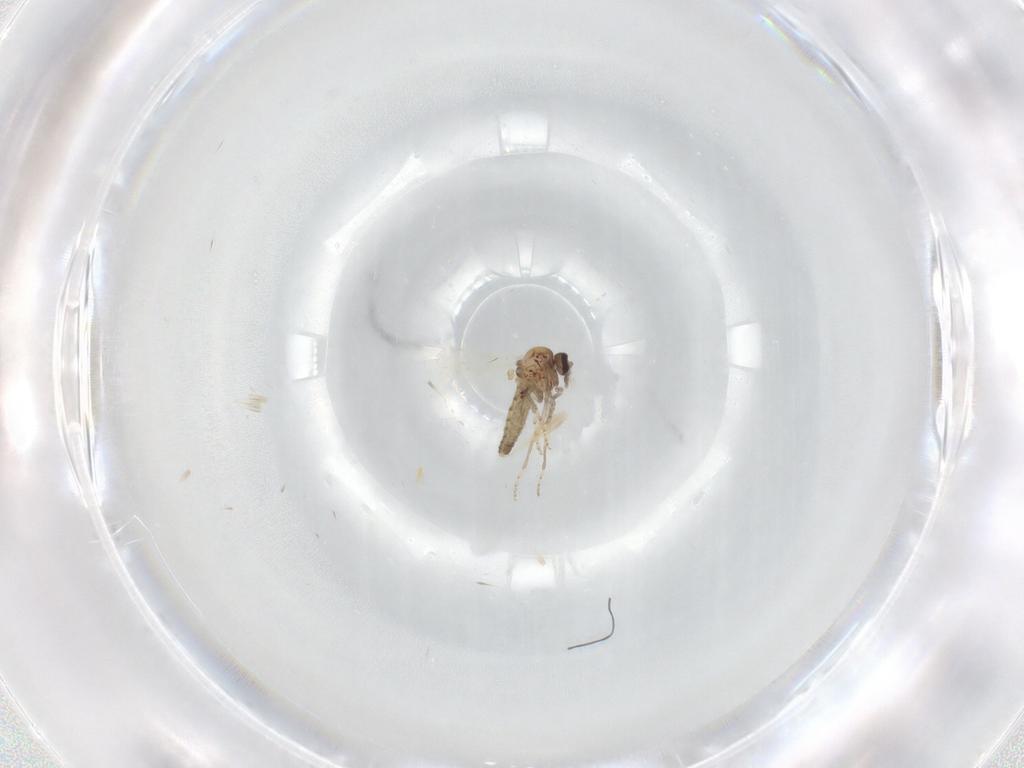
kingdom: Animalia
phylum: Arthropoda
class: Insecta
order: Diptera
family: Ceratopogonidae
